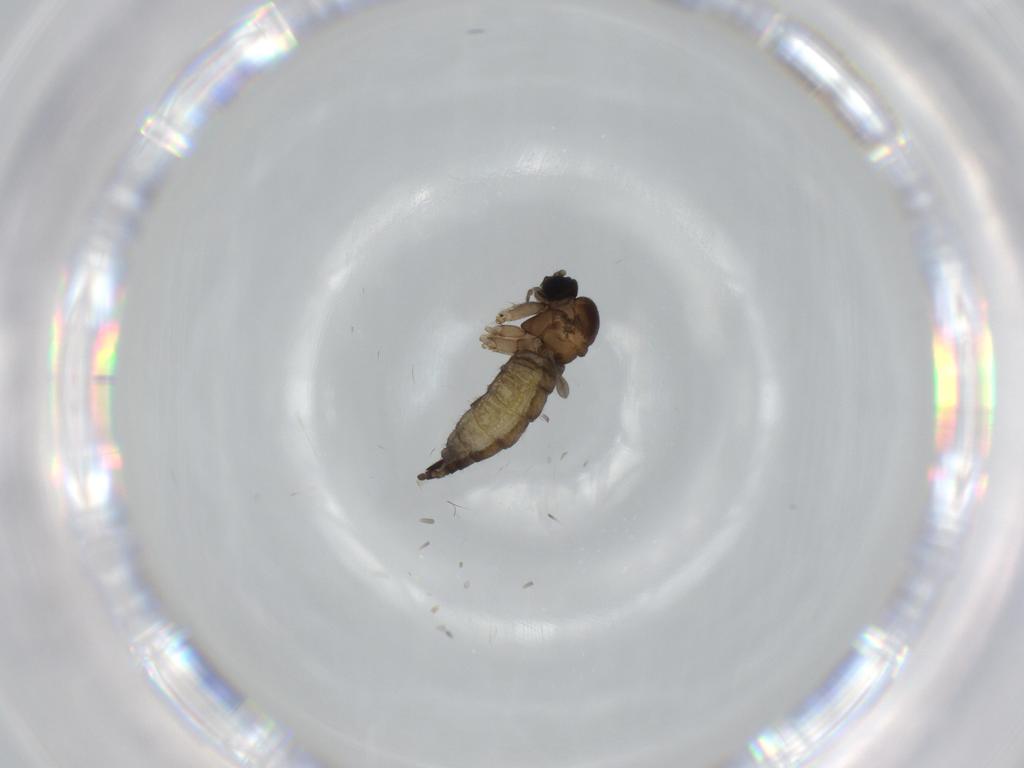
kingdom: Animalia
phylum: Arthropoda
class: Insecta
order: Diptera
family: Sciaridae
